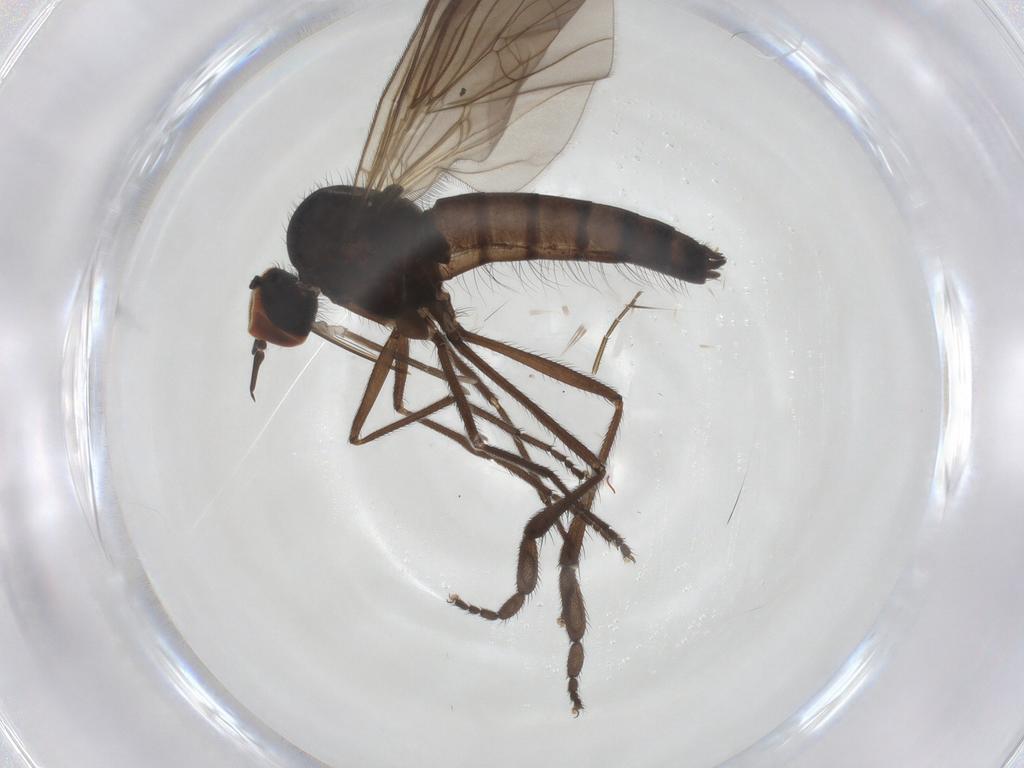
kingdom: Animalia
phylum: Arthropoda
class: Insecta
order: Diptera
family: Empididae
